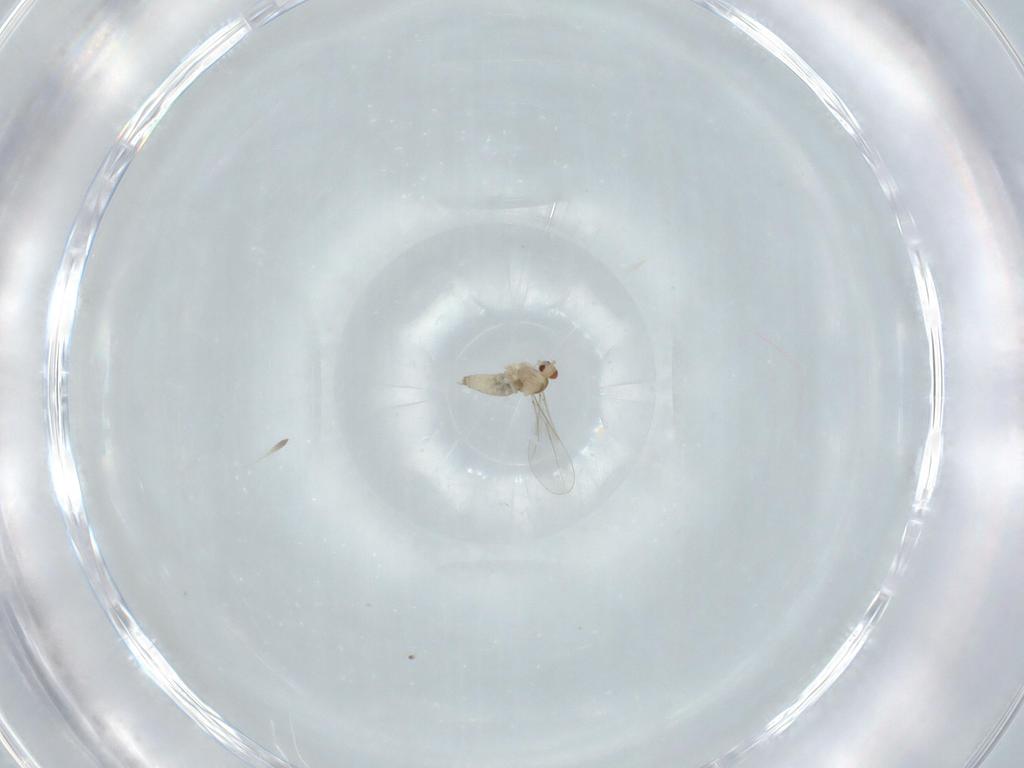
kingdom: Animalia
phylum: Arthropoda
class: Insecta
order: Diptera
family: Cecidomyiidae
